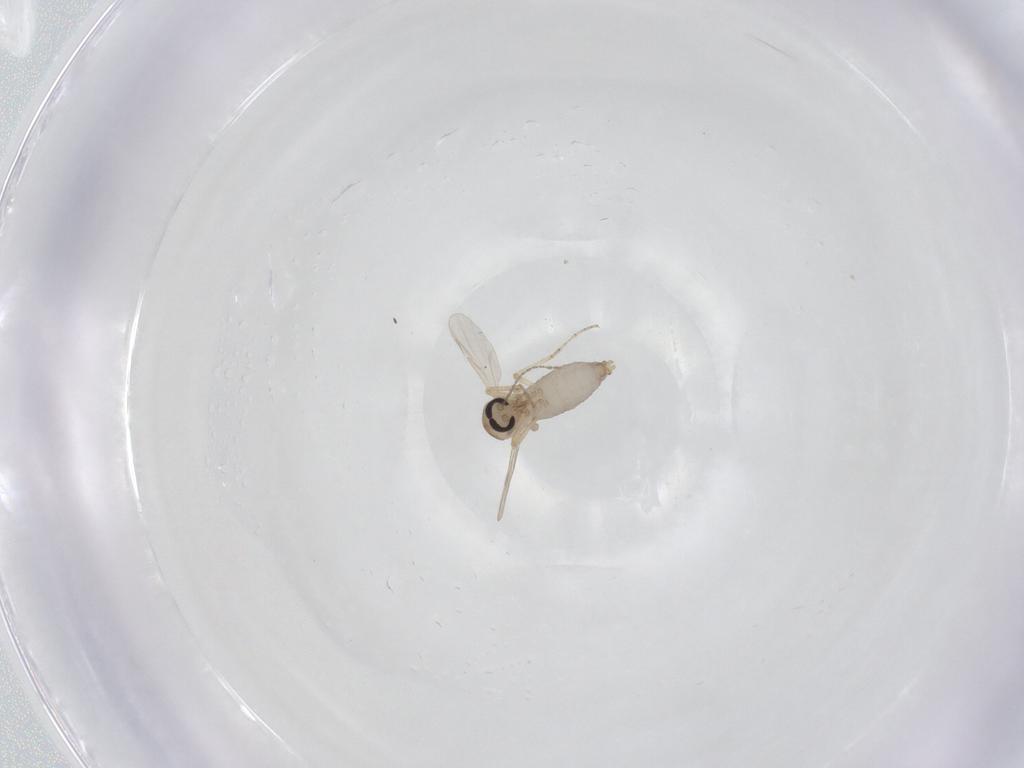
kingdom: Animalia
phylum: Arthropoda
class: Insecta
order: Diptera
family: Ceratopogonidae
